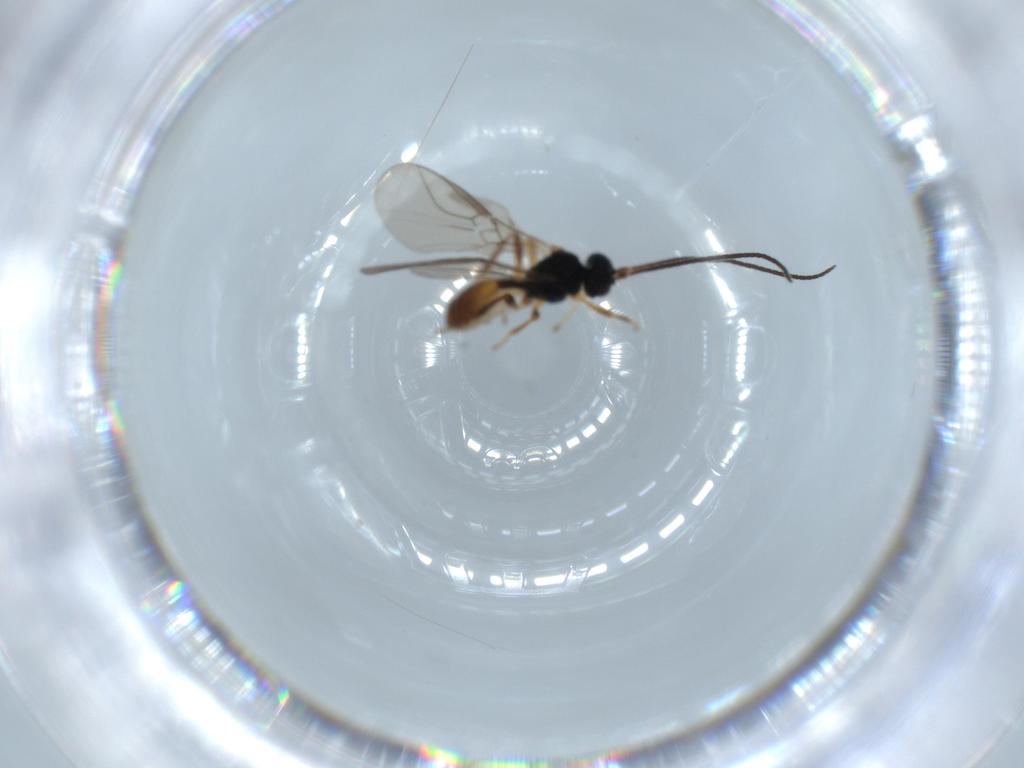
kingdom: Animalia
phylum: Arthropoda
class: Insecta
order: Hymenoptera
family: Braconidae
